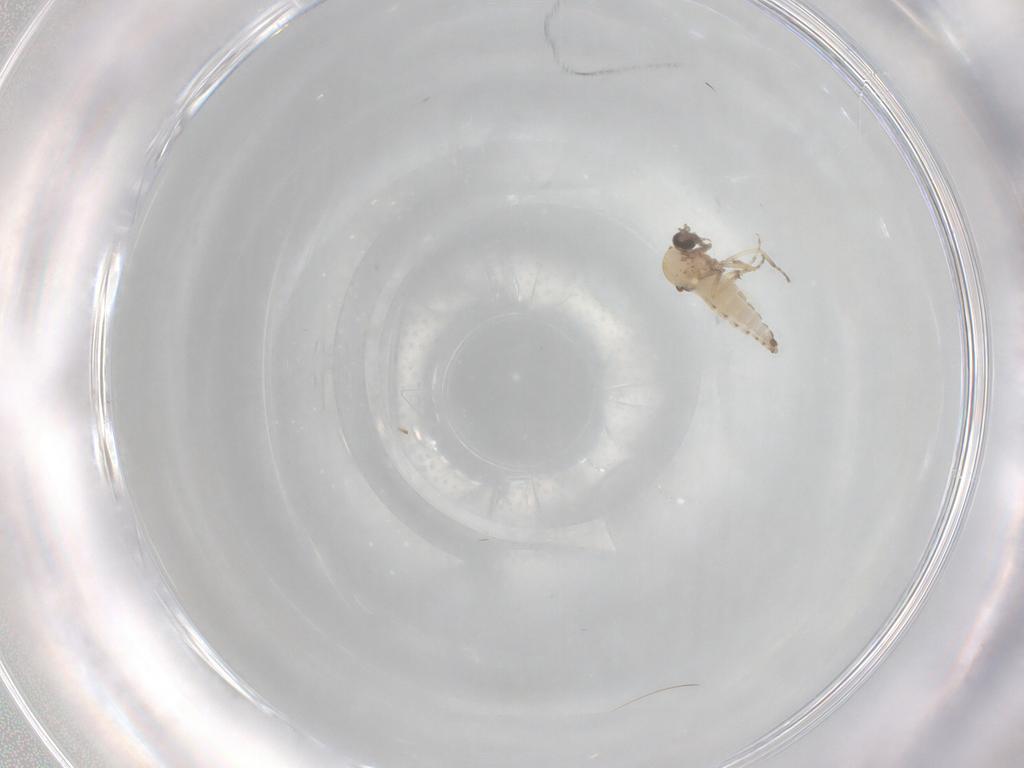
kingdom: Animalia
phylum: Arthropoda
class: Insecta
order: Diptera
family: Ceratopogonidae
